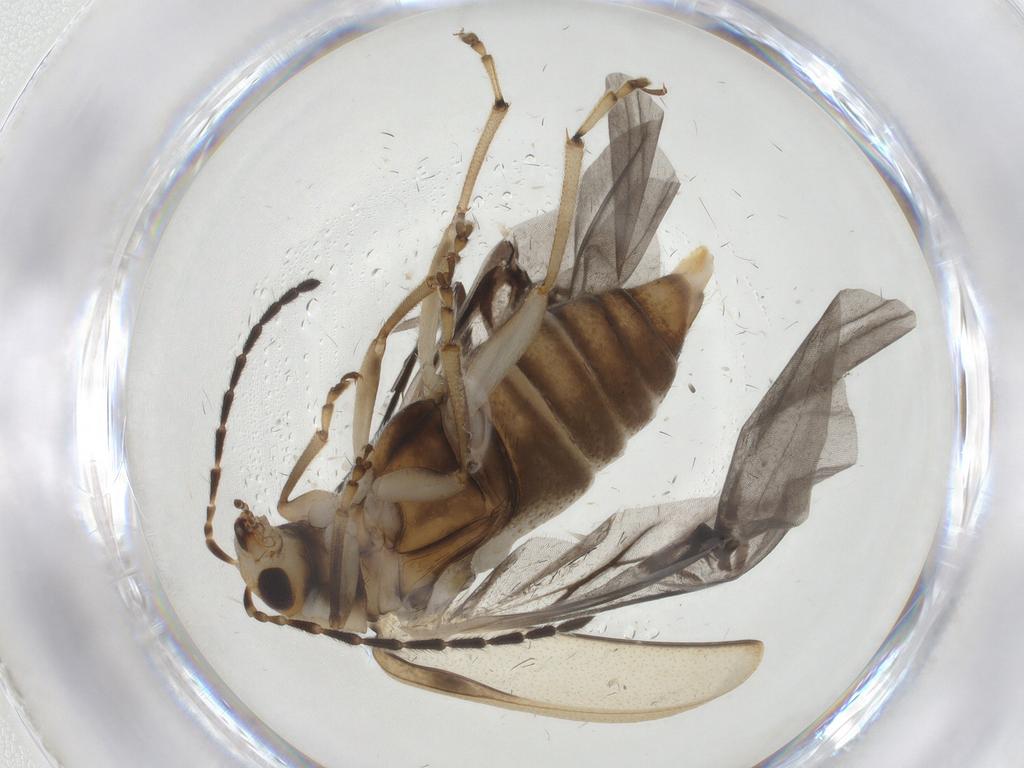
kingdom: Animalia
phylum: Arthropoda
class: Insecta
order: Coleoptera
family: Chrysomelidae
